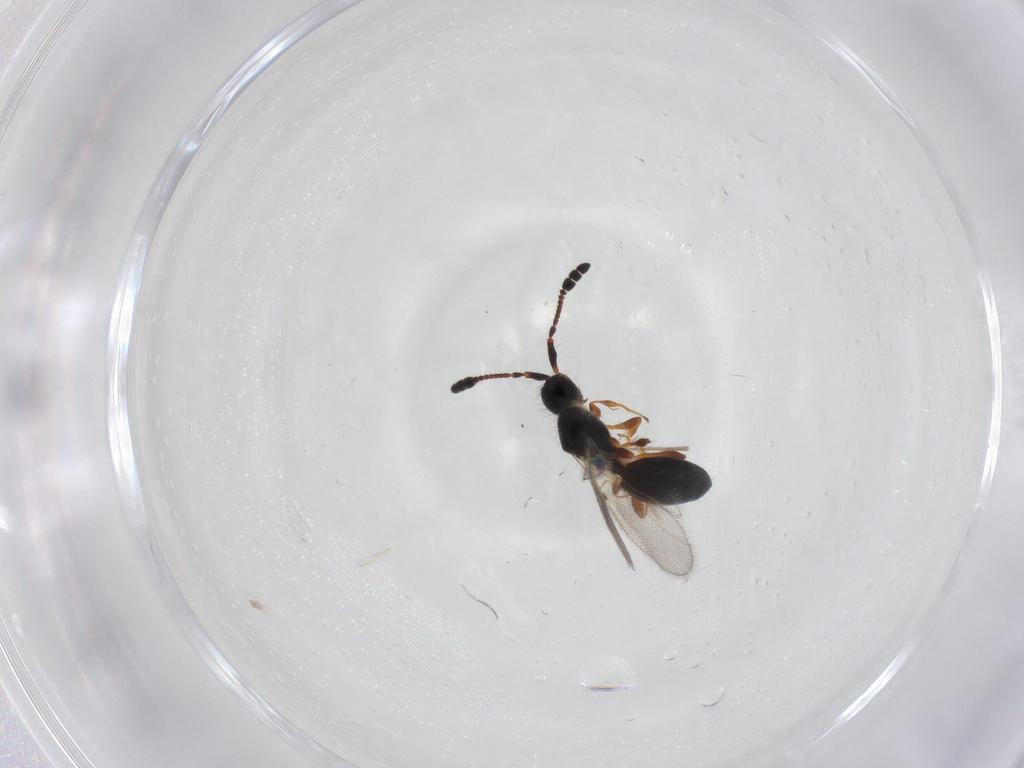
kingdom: Animalia
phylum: Arthropoda
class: Insecta
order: Hymenoptera
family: Diapriidae
